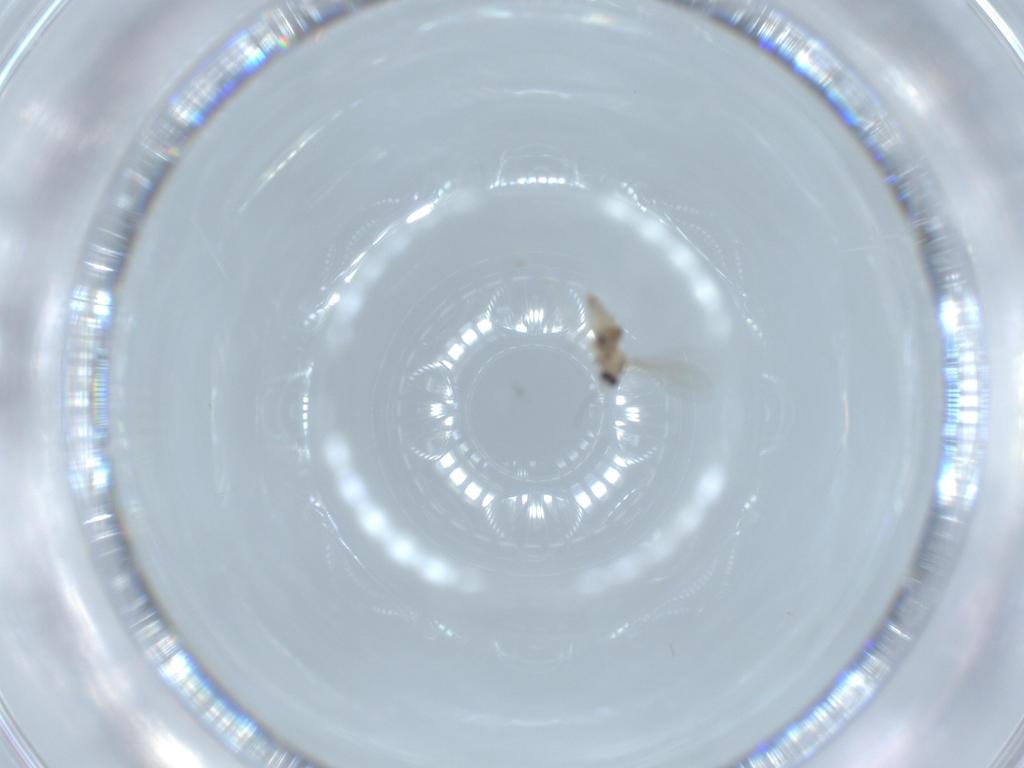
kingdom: Animalia
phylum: Arthropoda
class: Insecta
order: Diptera
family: Cecidomyiidae
